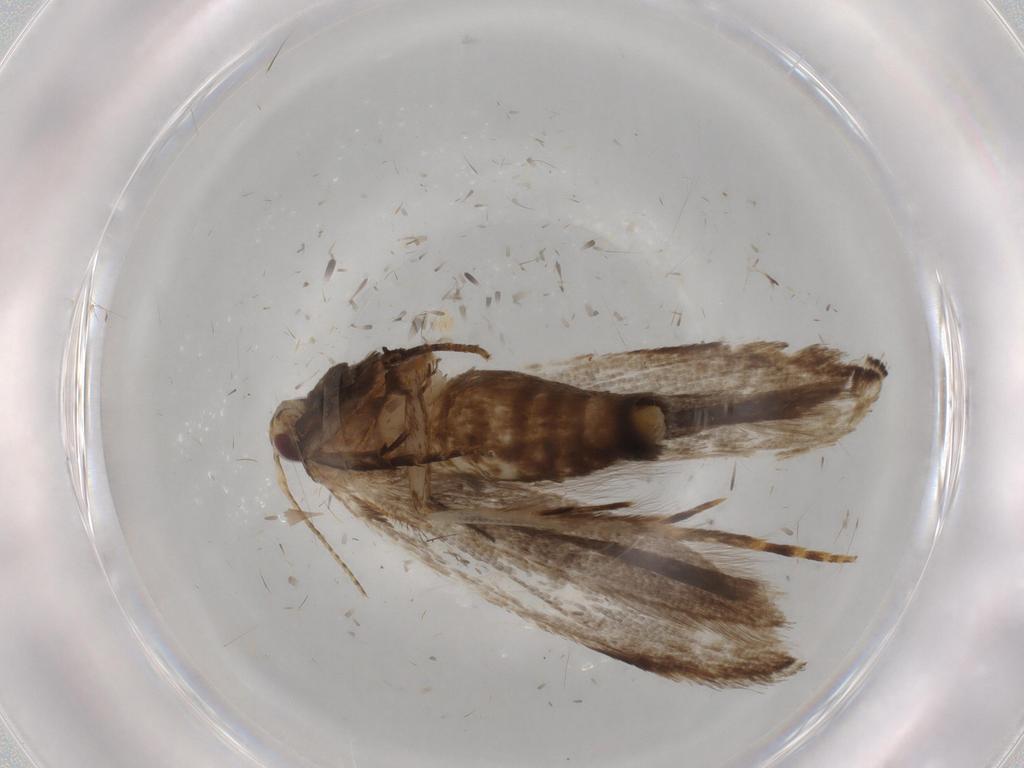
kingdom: Animalia
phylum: Arthropoda
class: Insecta
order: Lepidoptera
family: Gelechiidae
